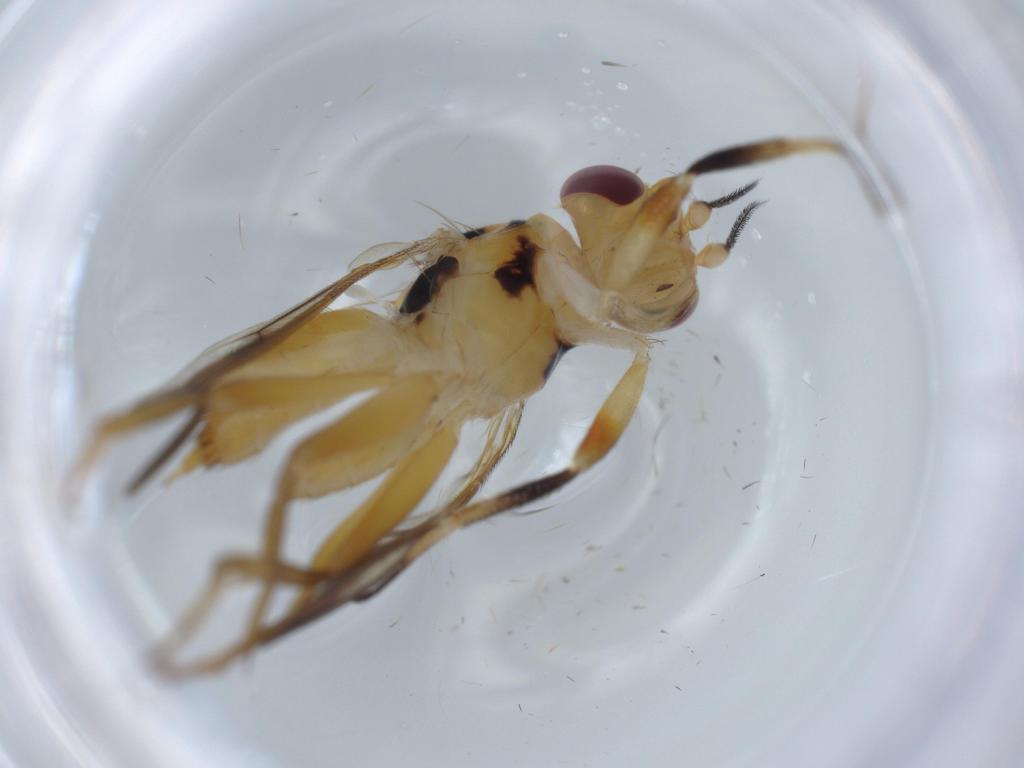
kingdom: Animalia
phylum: Arthropoda
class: Insecta
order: Diptera
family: Clusiidae
